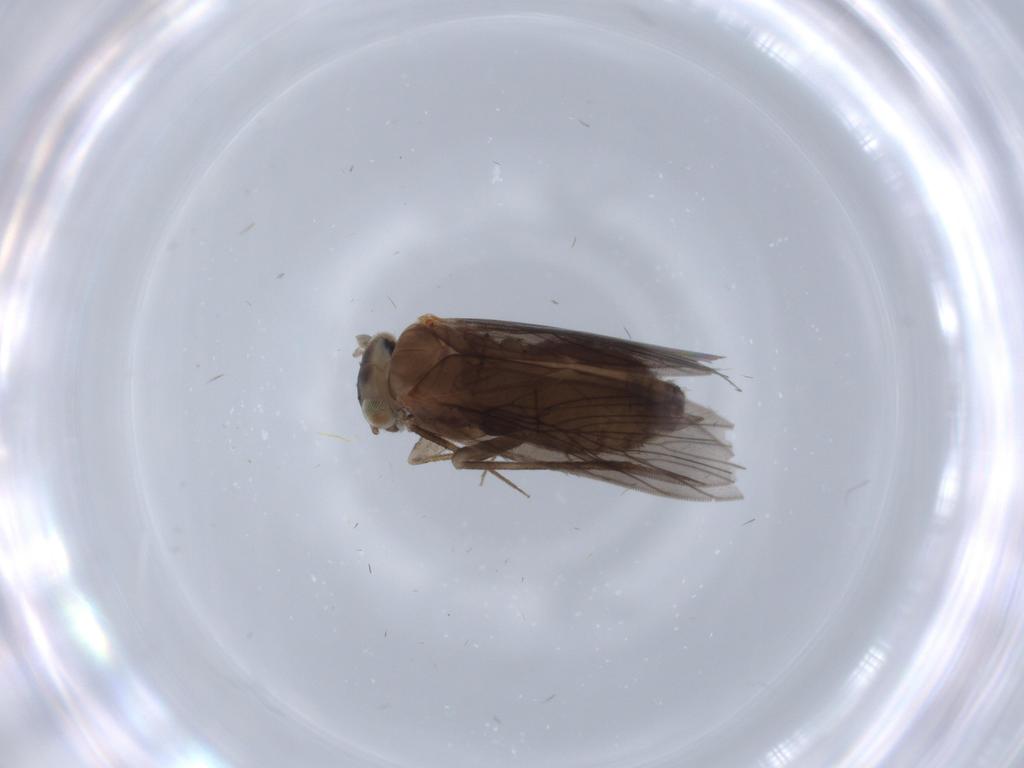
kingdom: Animalia
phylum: Arthropoda
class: Insecta
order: Psocodea
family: Lepidopsocidae
